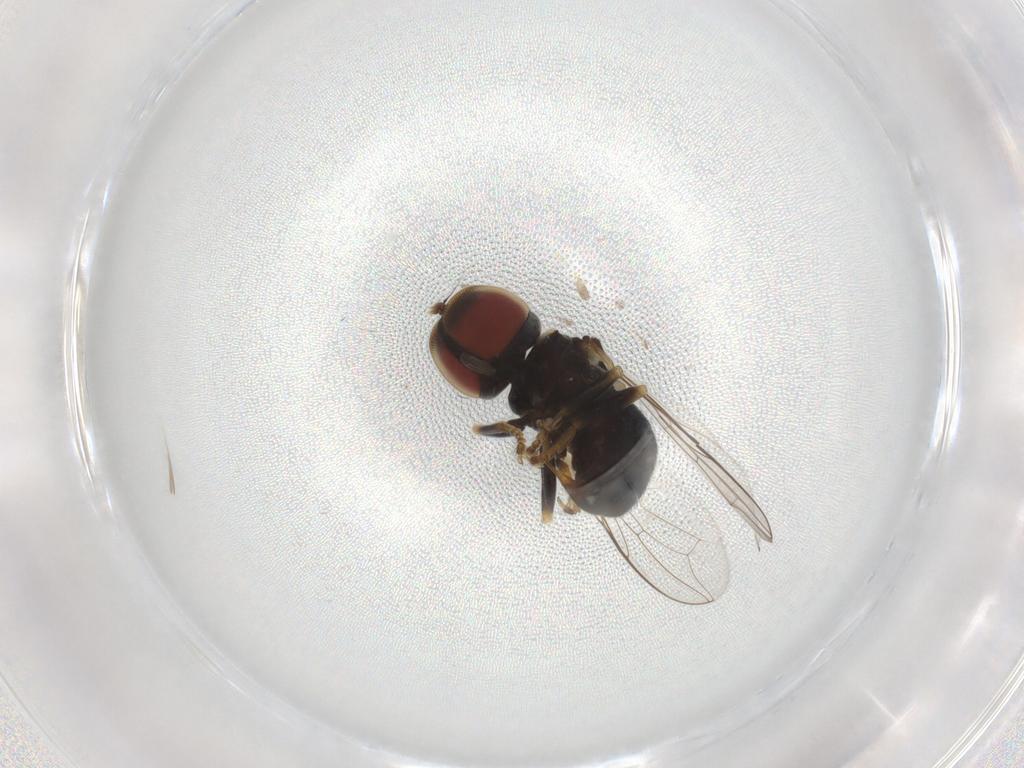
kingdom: Animalia
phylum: Arthropoda
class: Insecta
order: Diptera
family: Pipunculidae
